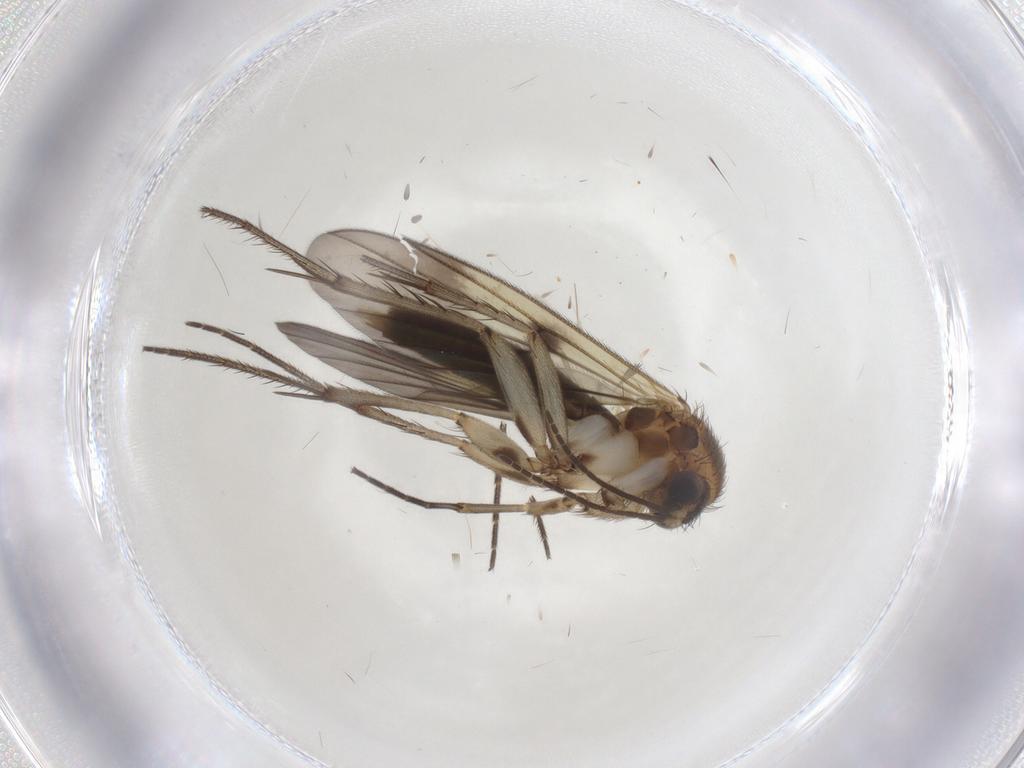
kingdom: Animalia
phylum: Arthropoda
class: Insecta
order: Diptera
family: Mycetophilidae
